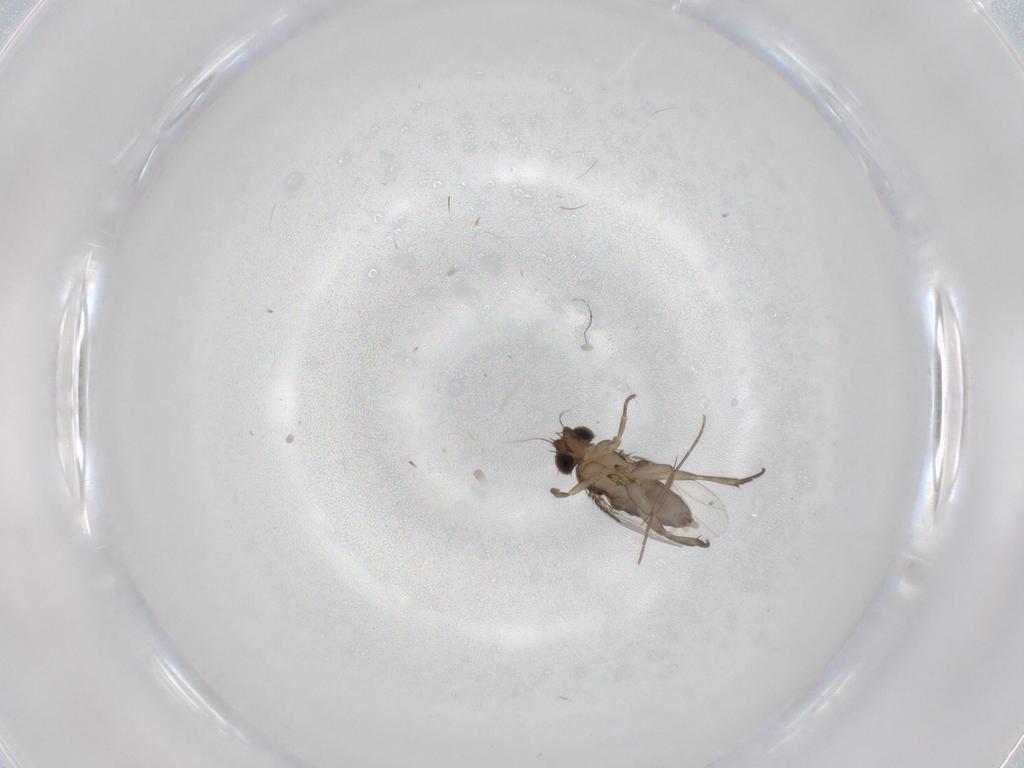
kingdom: Animalia
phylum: Arthropoda
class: Insecta
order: Diptera
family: Phoridae
